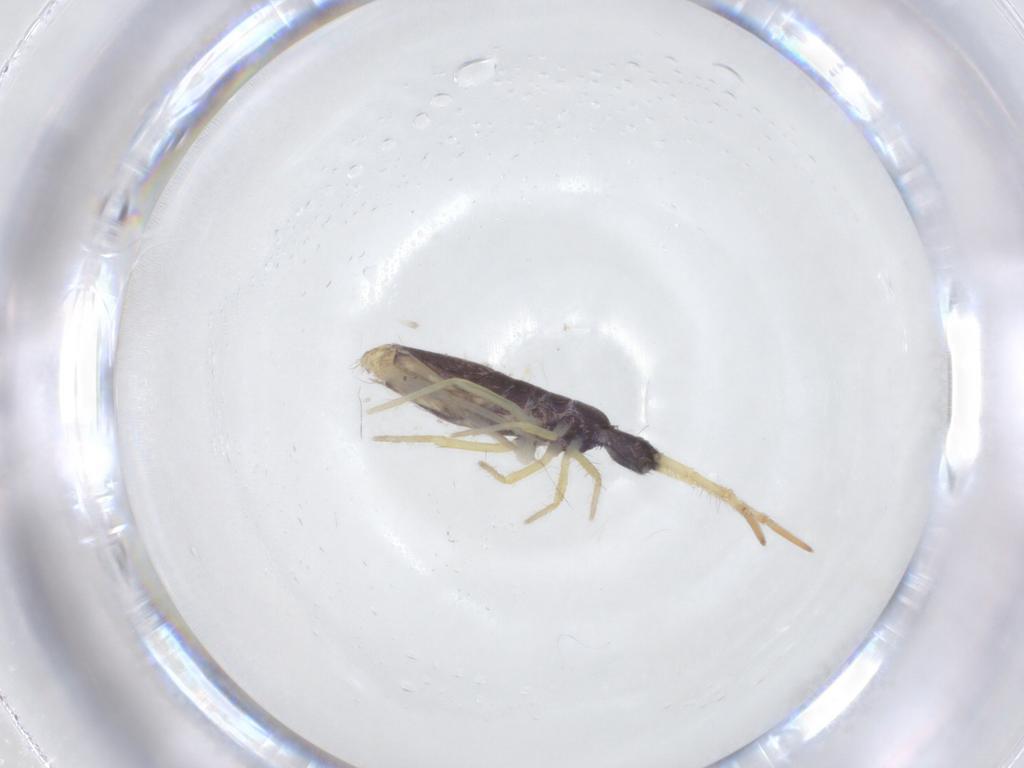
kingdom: Animalia
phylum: Arthropoda
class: Collembola
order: Entomobryomorpha
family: Entomobryidae
